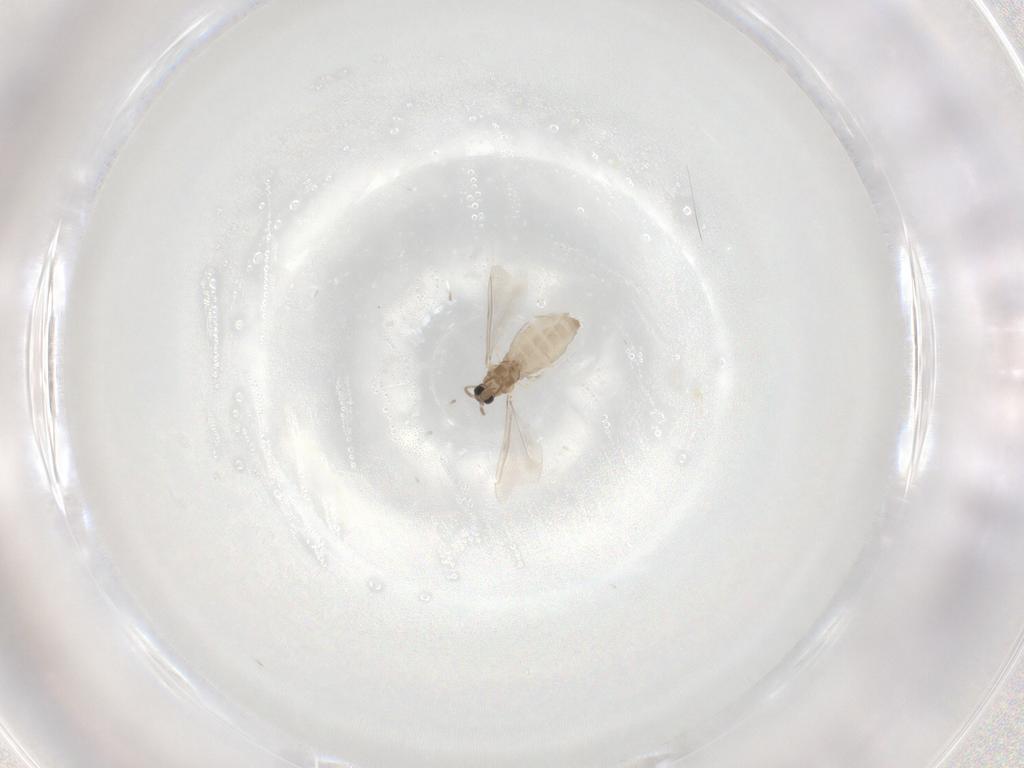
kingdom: Animalia
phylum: Arthropoda
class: Insecta
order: Diptera
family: Cecidomyiidae
